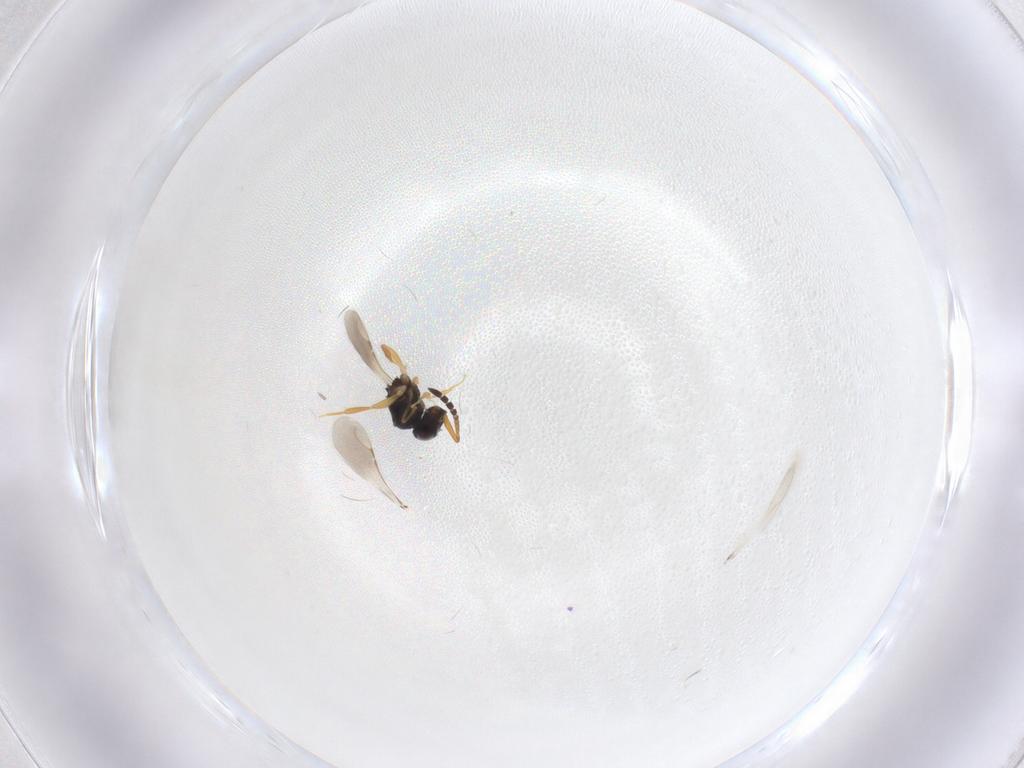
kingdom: Animalia
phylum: Arthropoda
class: Insecta
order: Hymenoptera
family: Ceraphronidae
